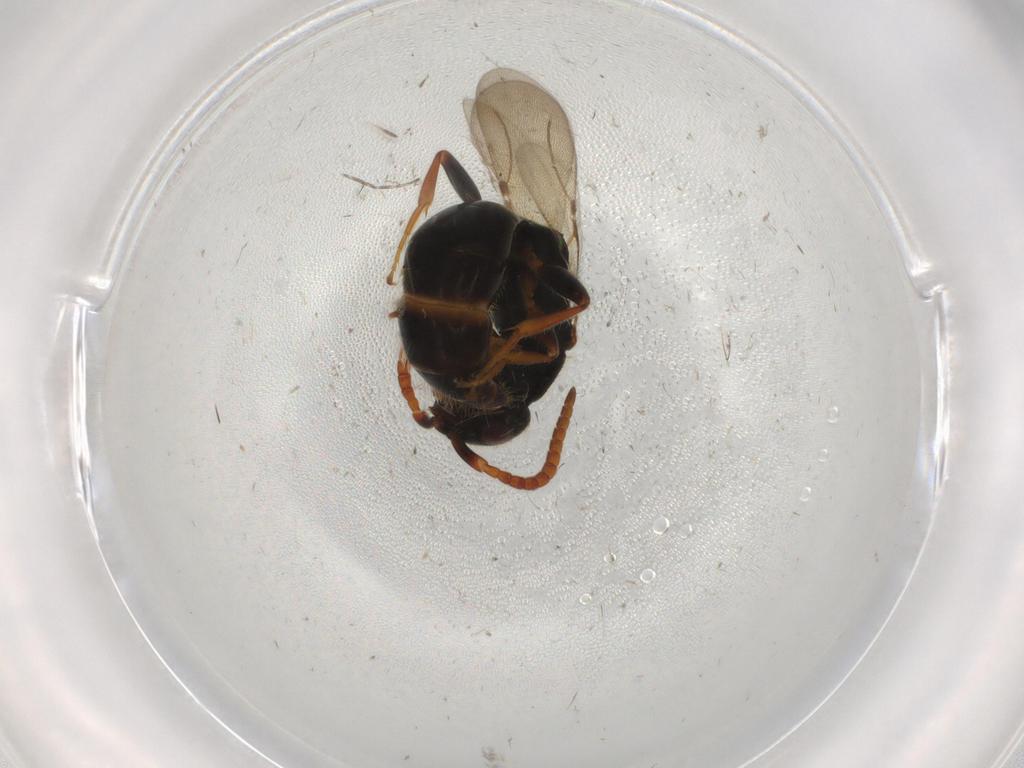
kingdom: Animalia
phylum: Arthropoda
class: Insecta
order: Hymenoptera
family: Bethylidae
